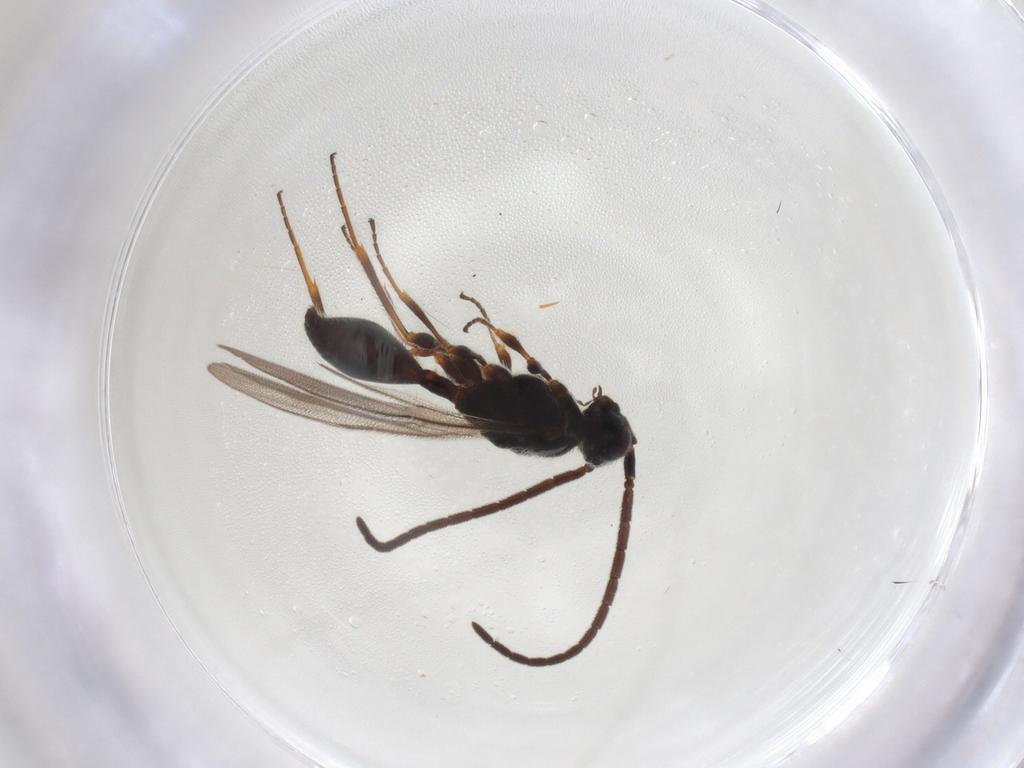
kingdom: Animalia
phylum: Arthropoda
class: Insecta
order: Hymenoptera
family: Diapriidae
